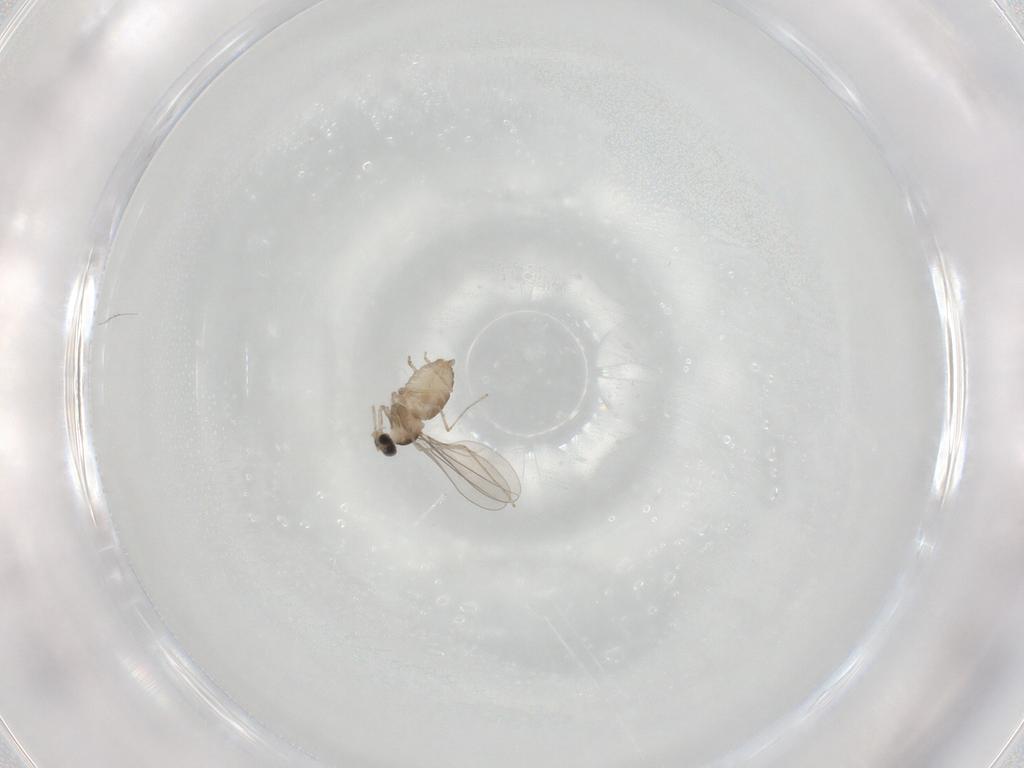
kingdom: Animalia
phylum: Arthropoda
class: Insecta
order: Diptera
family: Cecidomyiidae
